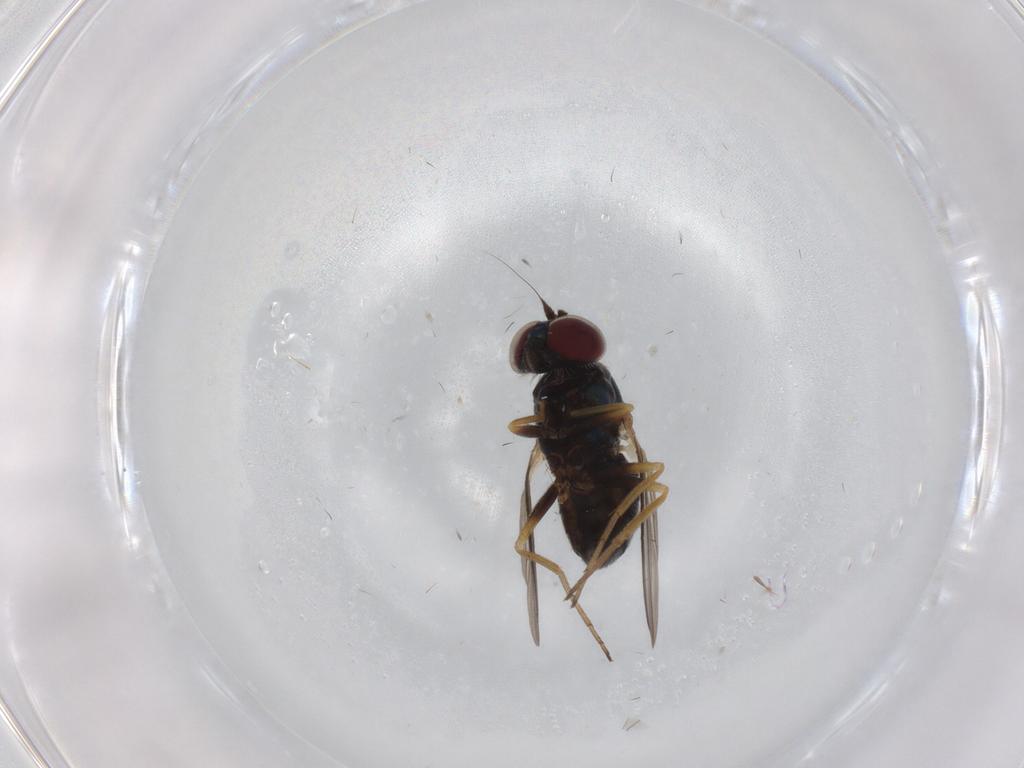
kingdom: Animalia
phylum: Arthropoda
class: Insecta
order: Diptera
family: Dolichopodidae
